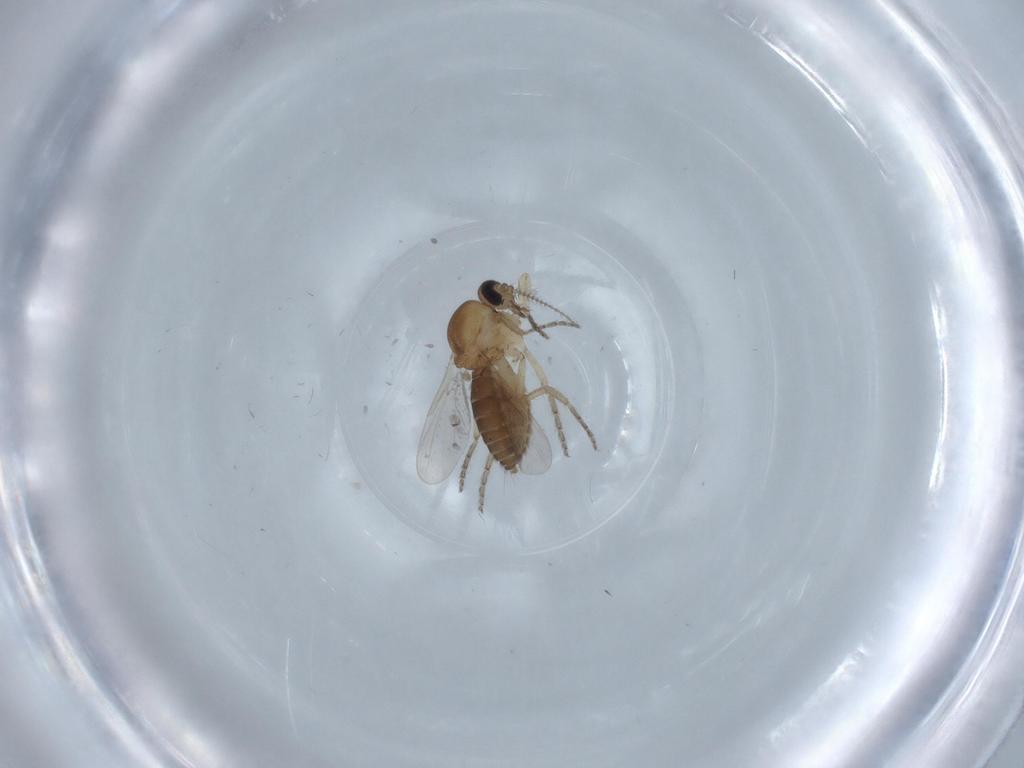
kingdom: Animalia
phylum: Arthropoda
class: Insecta
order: Diptera
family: Ceratopogonidae
